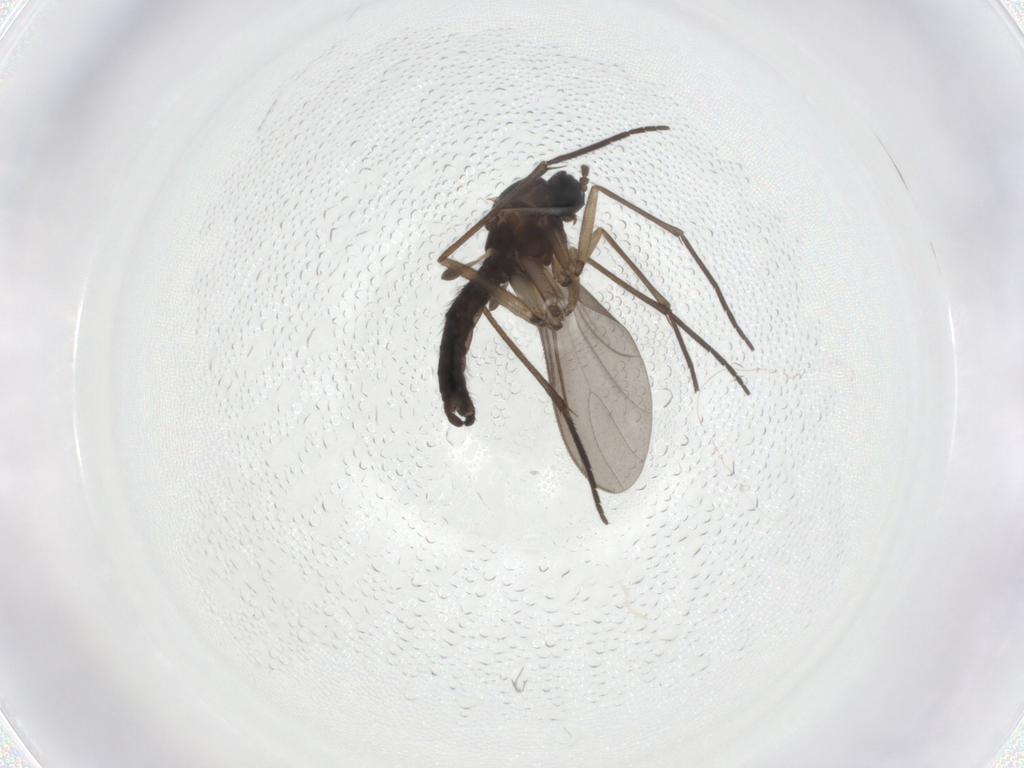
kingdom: Animalia
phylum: Arthropoda
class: Insecta
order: Diptera
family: Sciaridae
